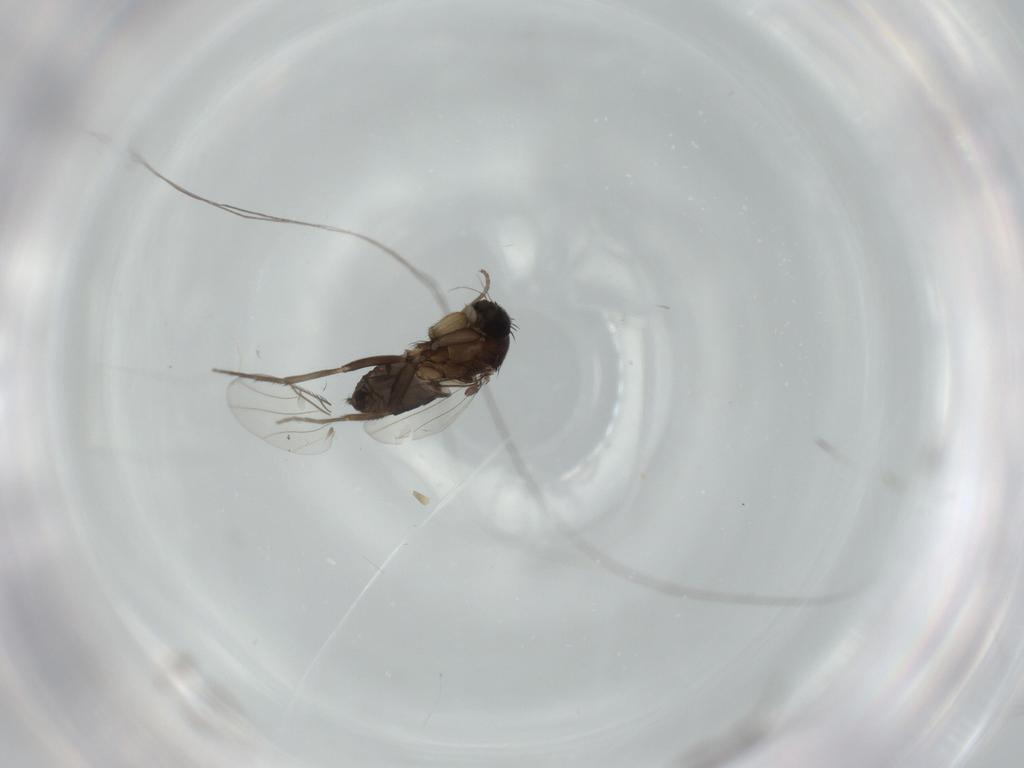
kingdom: Animalia
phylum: Arthropoda
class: Insecta
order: Diptera
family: Phoridae
